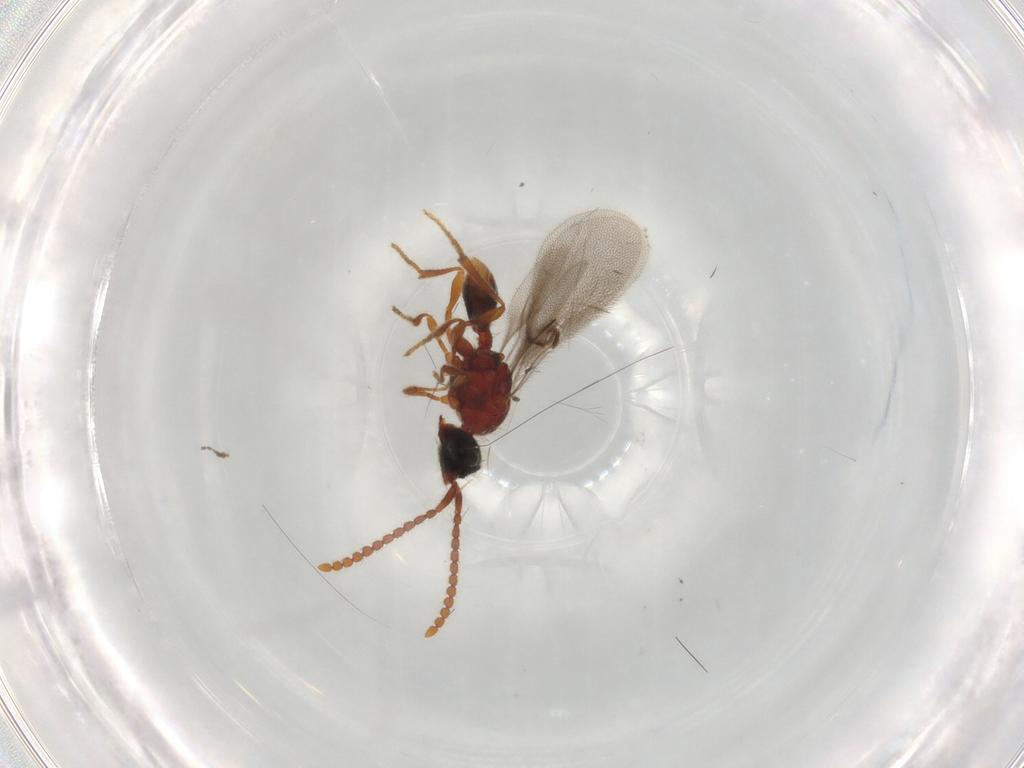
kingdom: Animalia
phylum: Arthropoda
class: Insecta
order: Hymenoptera
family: Diapriidae
